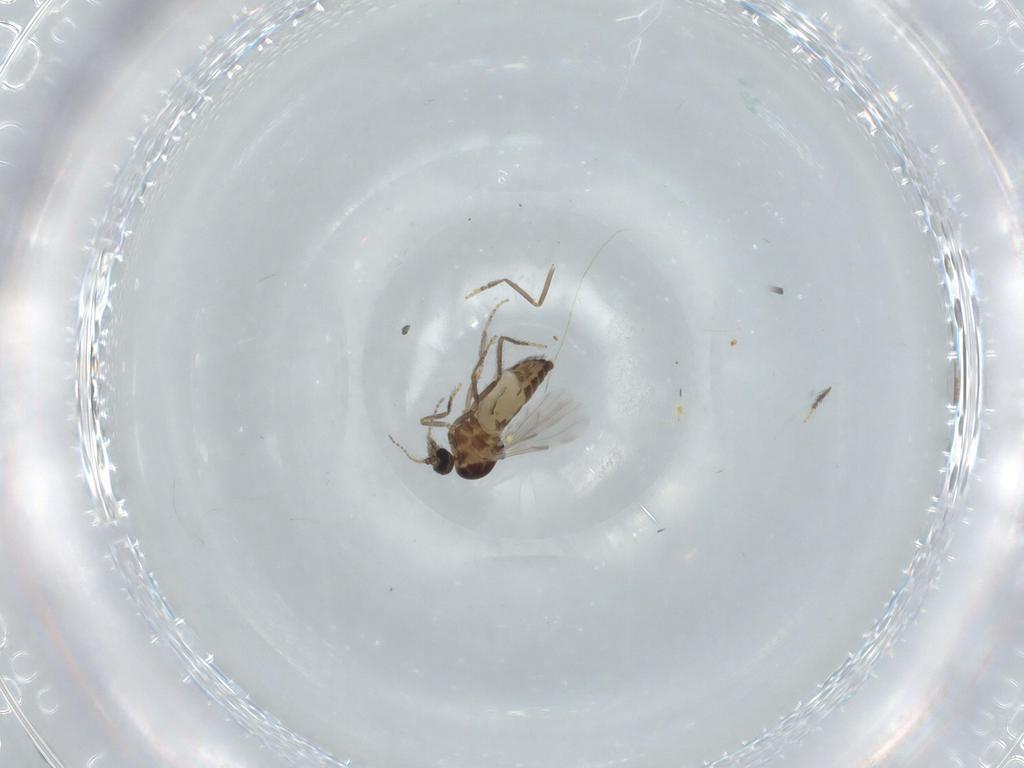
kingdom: Animalia
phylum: Arthropoda
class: Insecta
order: Diptera
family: Ceratopogonidae
